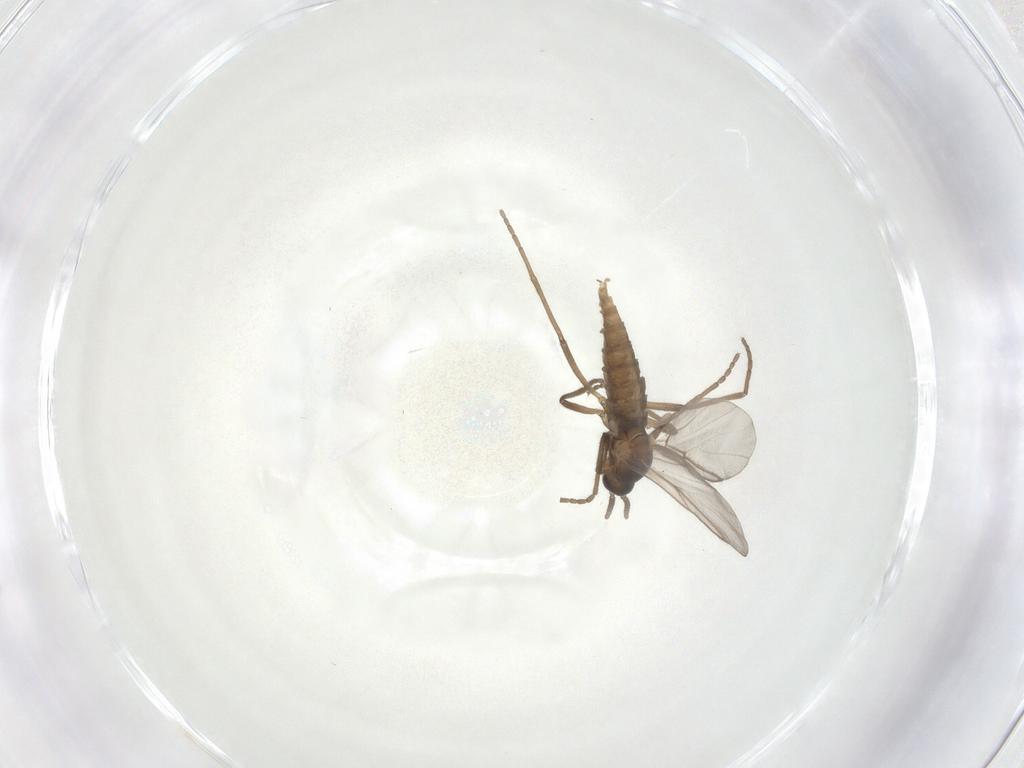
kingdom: Animalia
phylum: Arthropoda
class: Insecta
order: Diptera
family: Cecidomyiidae
